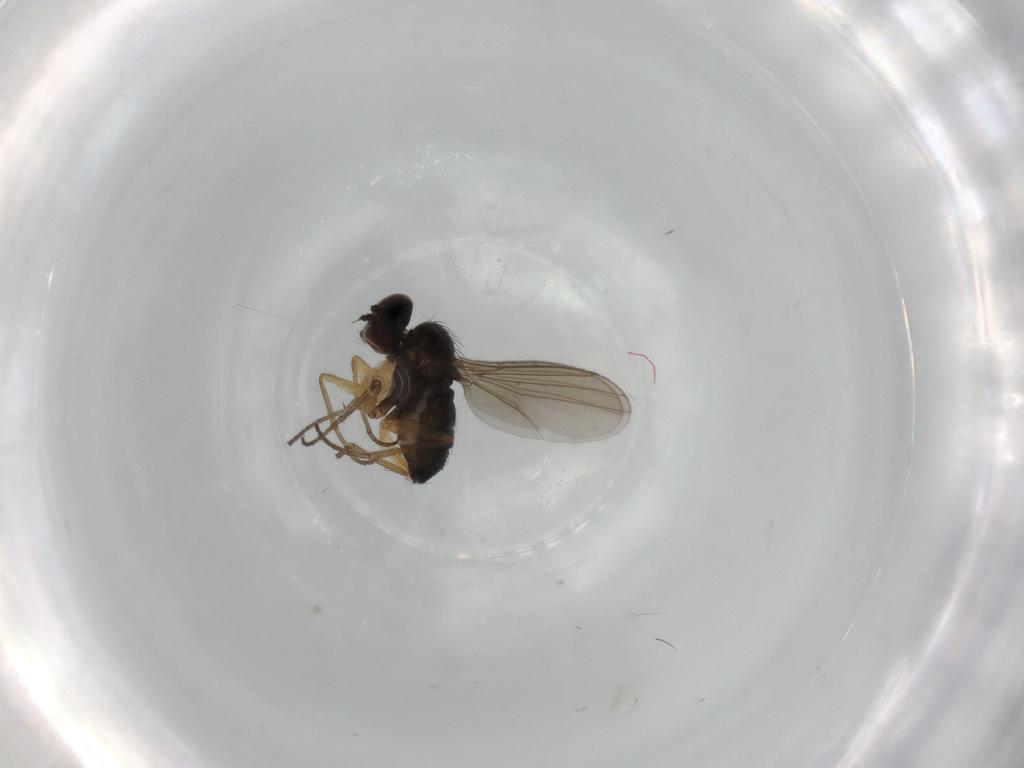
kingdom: Animalia
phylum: Arthropoda
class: Insecta
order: Diptera
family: Dolichopodidae
